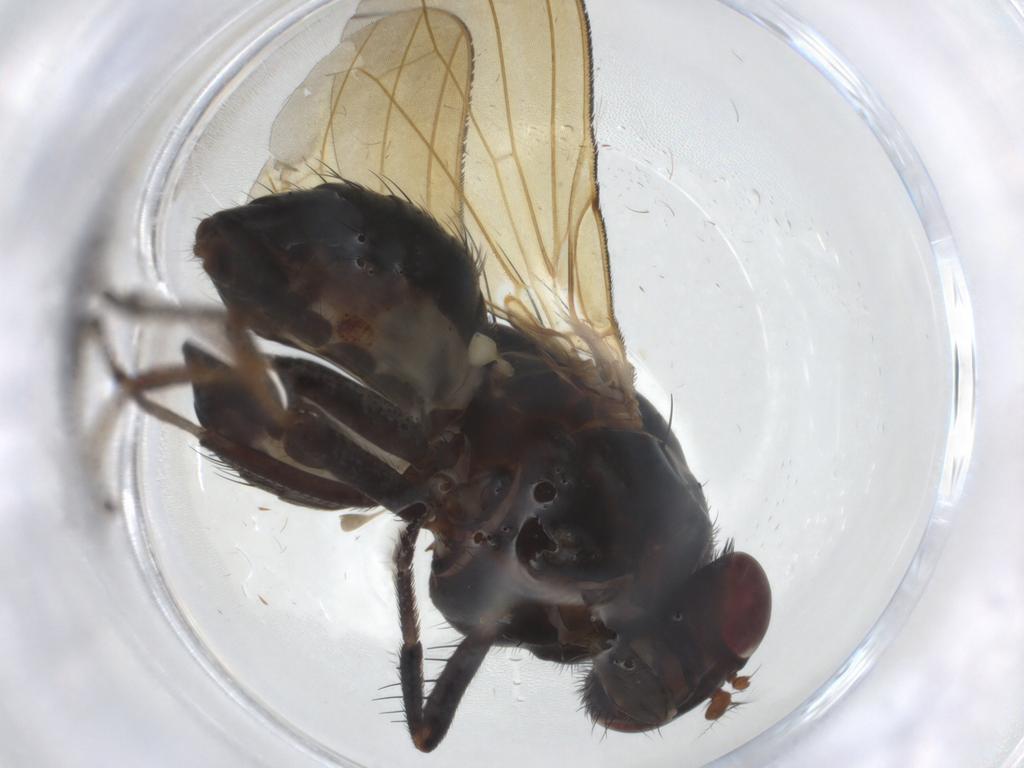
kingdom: Animalia
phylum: Arthropoda
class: Insecta
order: Diptera
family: Lauxaniidae
